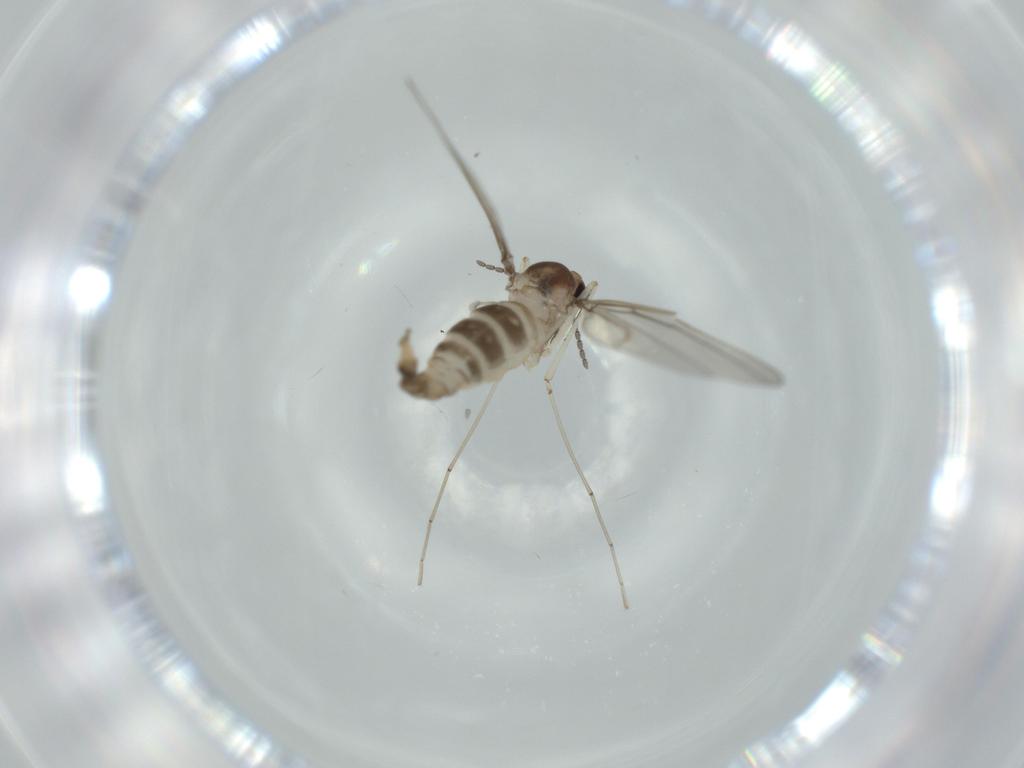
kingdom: Animalia
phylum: Arthropoda
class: Insecta
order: Diptera
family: Cecidomyiidae
